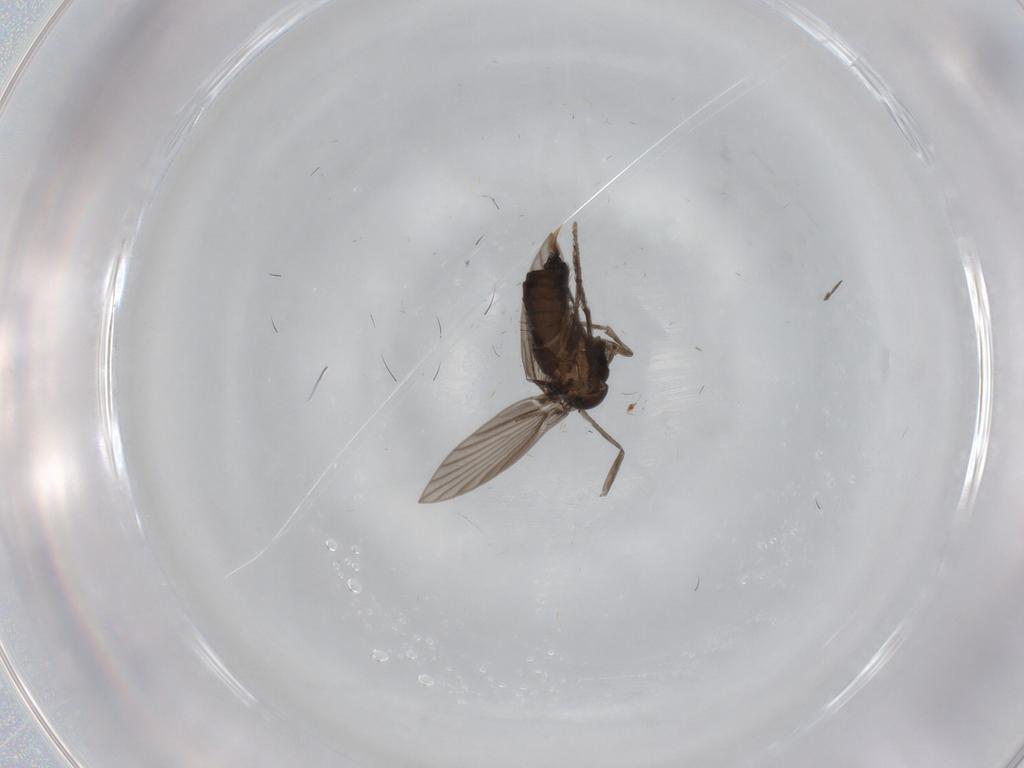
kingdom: Animalia
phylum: Arthropoda
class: Insecta
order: Diptera
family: Psychodidae
